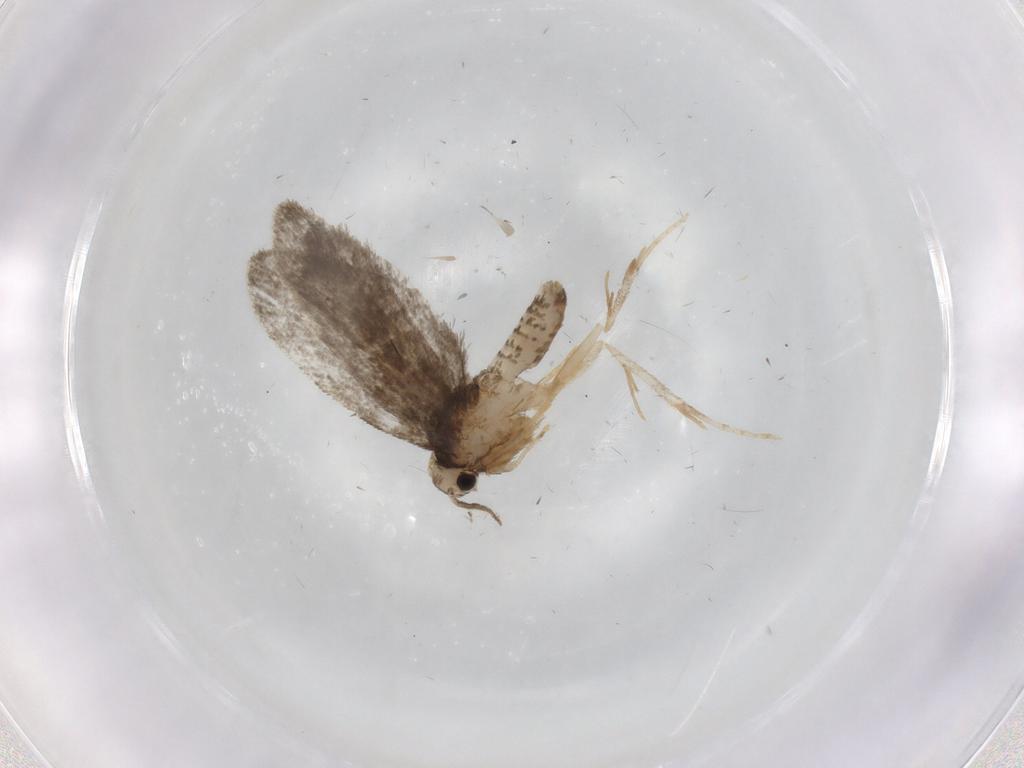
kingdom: Animalia
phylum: Arthropoda
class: Insecta
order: Lepidoptera
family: Psychidae
